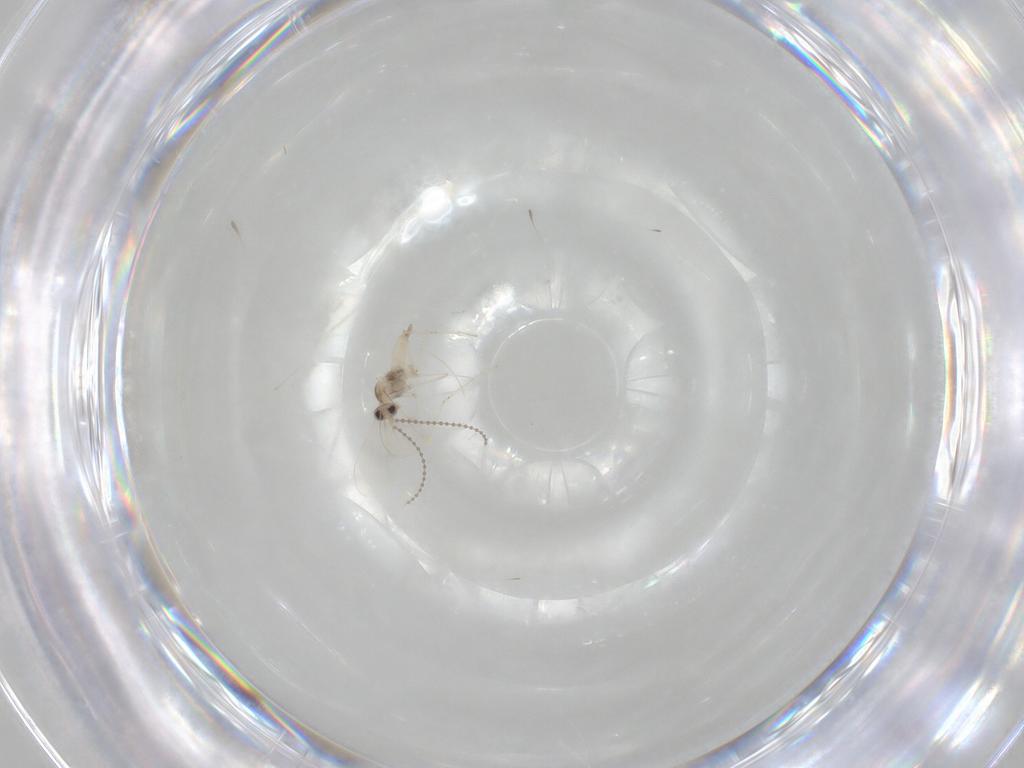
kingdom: Animalia
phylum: Arthropoda
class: Insecta
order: Diptera
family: Cecidomyiidae
